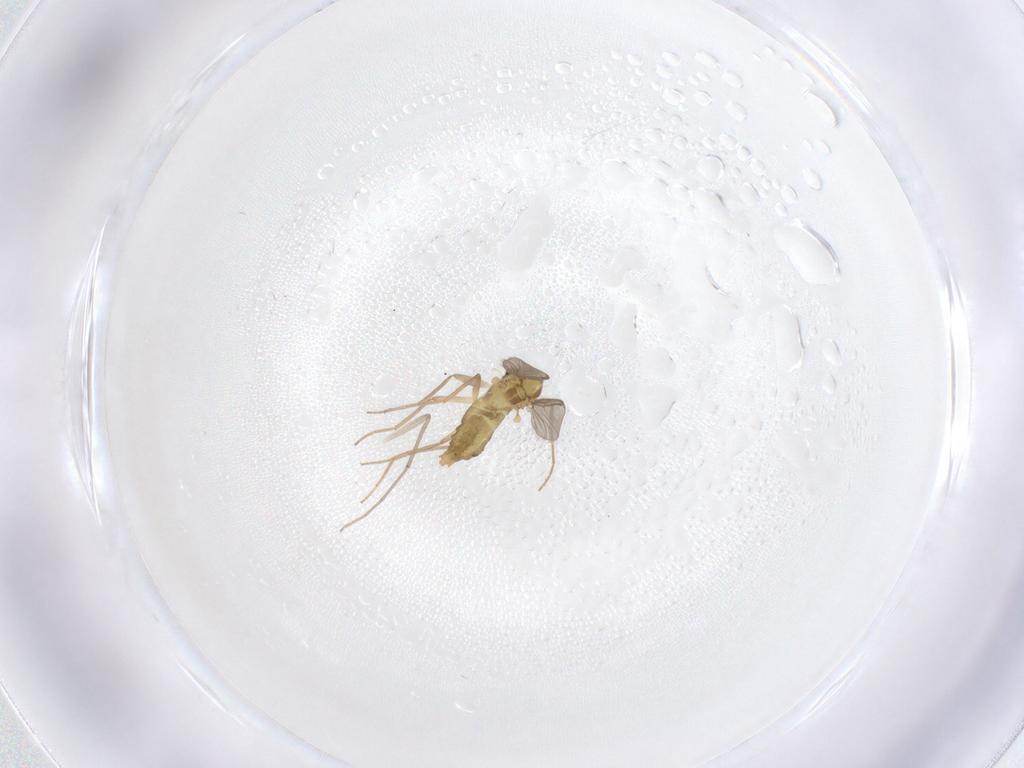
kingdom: Animalia
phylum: Arthropoda
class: Insecta
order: Diptera
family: Chironomidae
